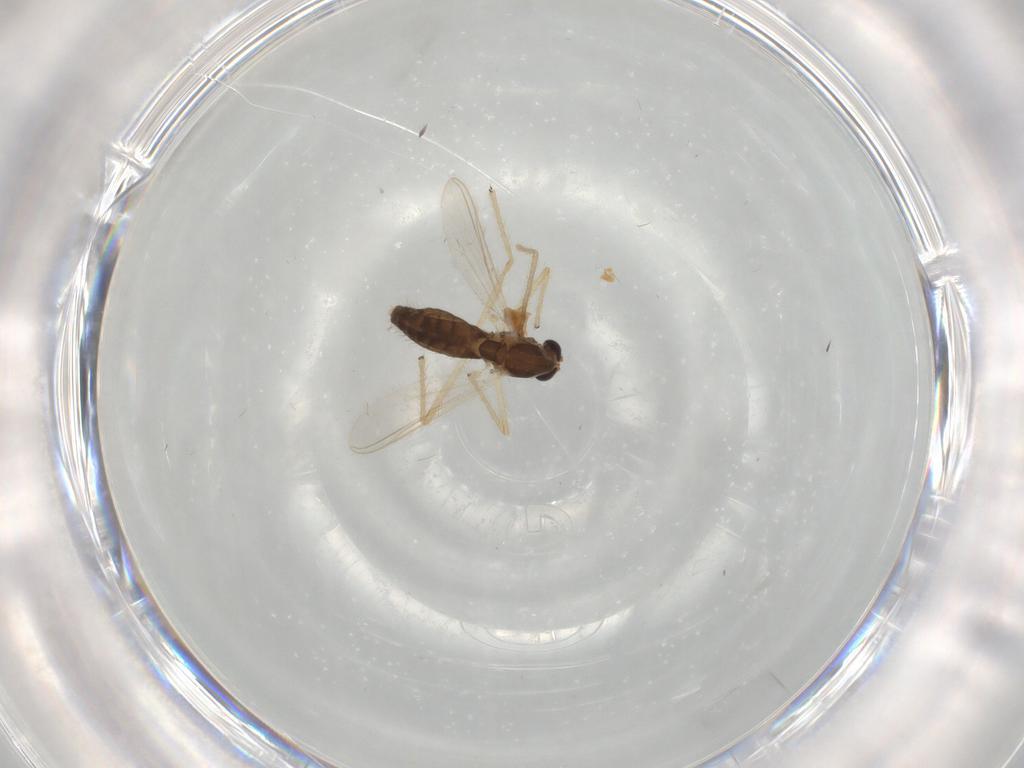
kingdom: Animalia
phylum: Arthropoda
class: Insecta
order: Diptera
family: Chironomidae
